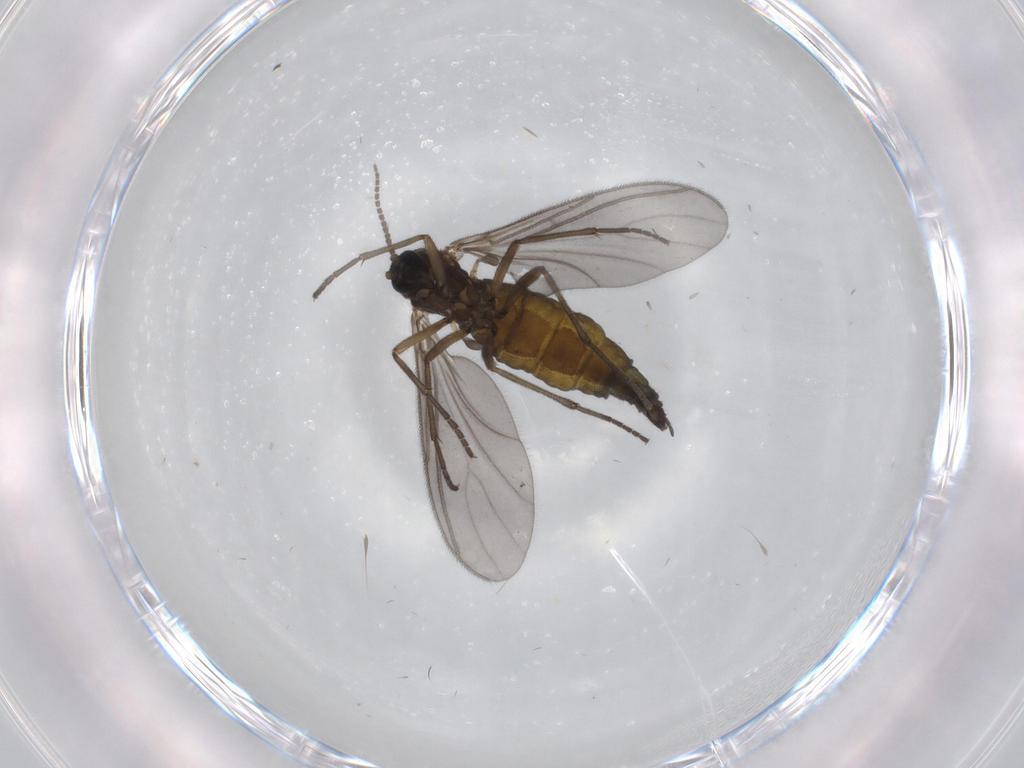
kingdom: Animalia
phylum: Arthropoda
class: Insecta
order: Diptera
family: Sciaridae
